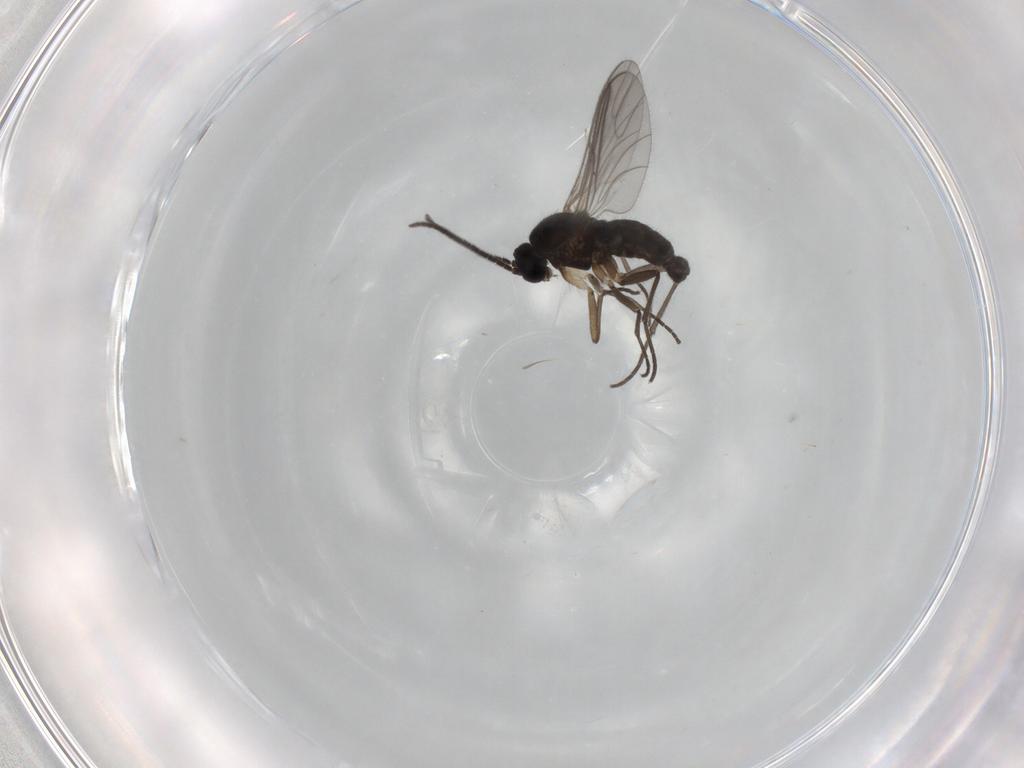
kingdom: Animalia
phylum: Arthropoda
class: Insecta
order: Diptera
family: Sciaridae
